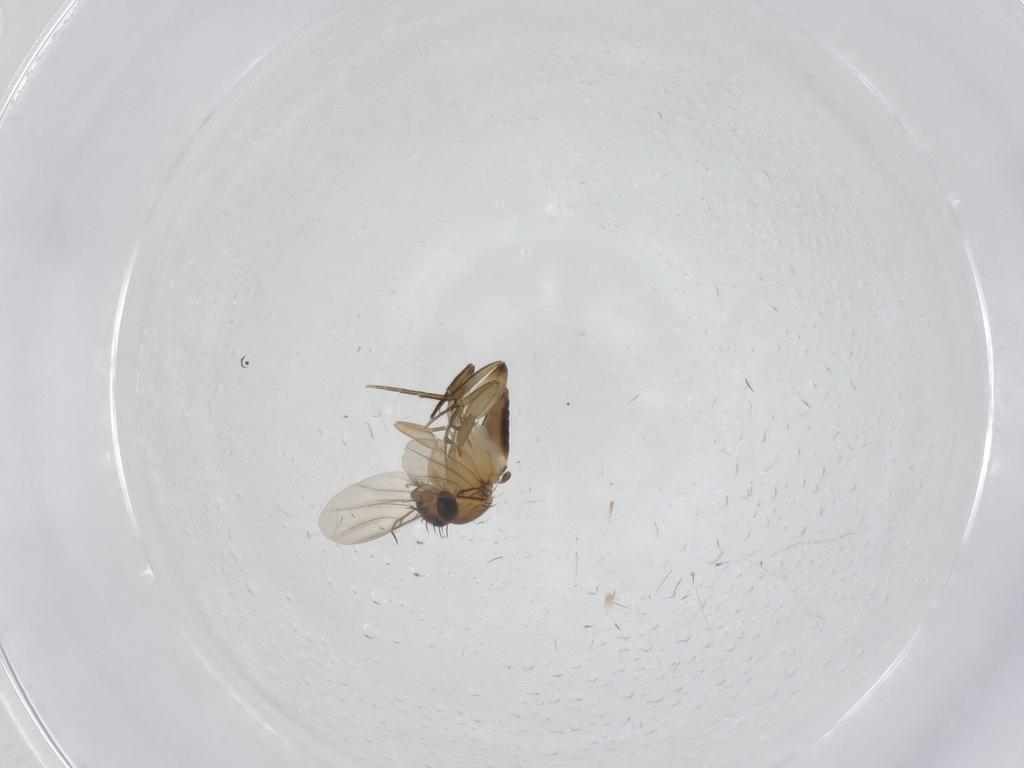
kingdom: Animalia
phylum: Arthropoda
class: Insecta
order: Diptera
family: Phoridae
